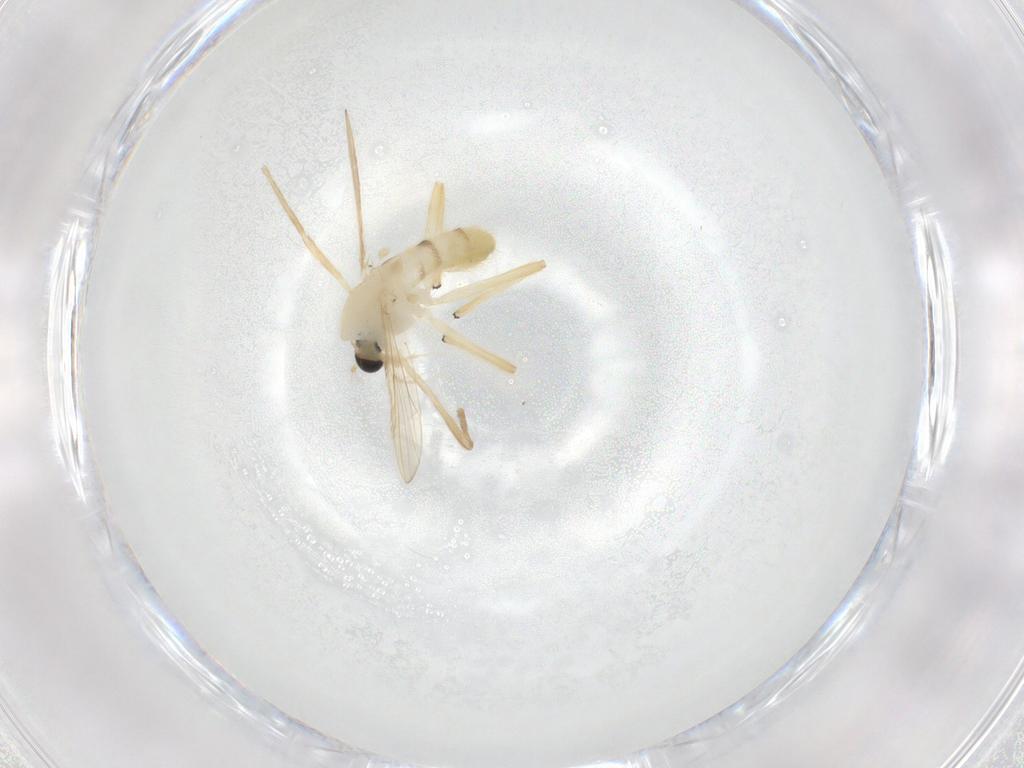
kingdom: Animalia
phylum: Arthropoda
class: Insecta
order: Diptera
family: Chironomidae
